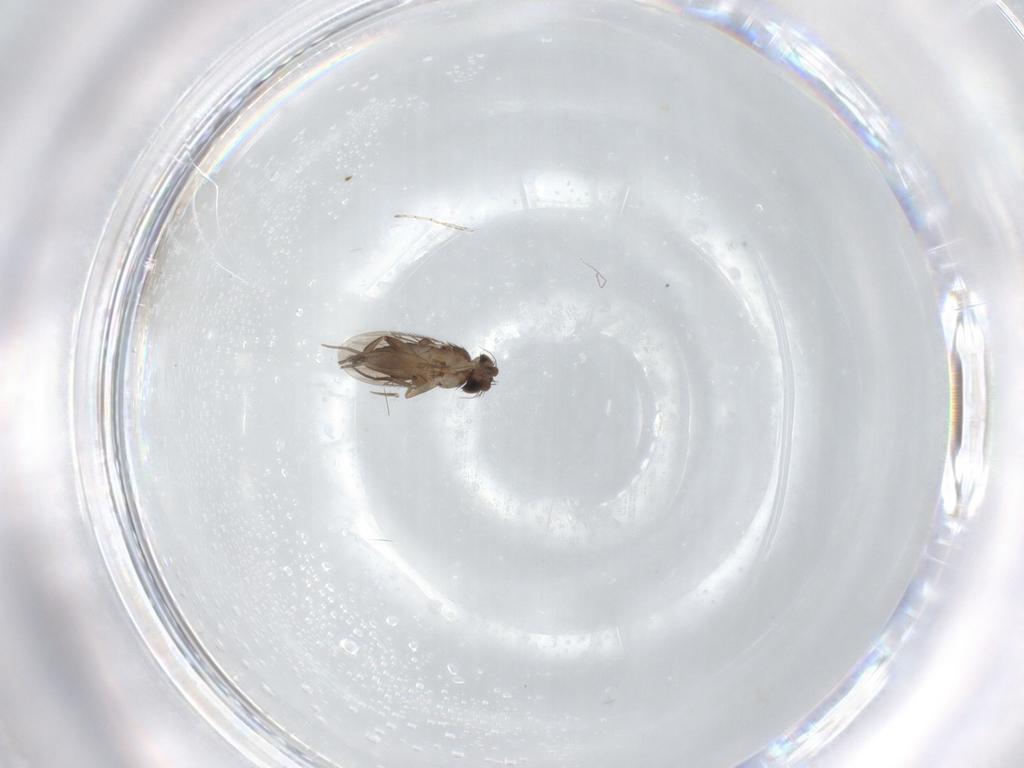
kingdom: Animalia
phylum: Arthropoda
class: Insecta
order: Diptera
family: Phoridae
